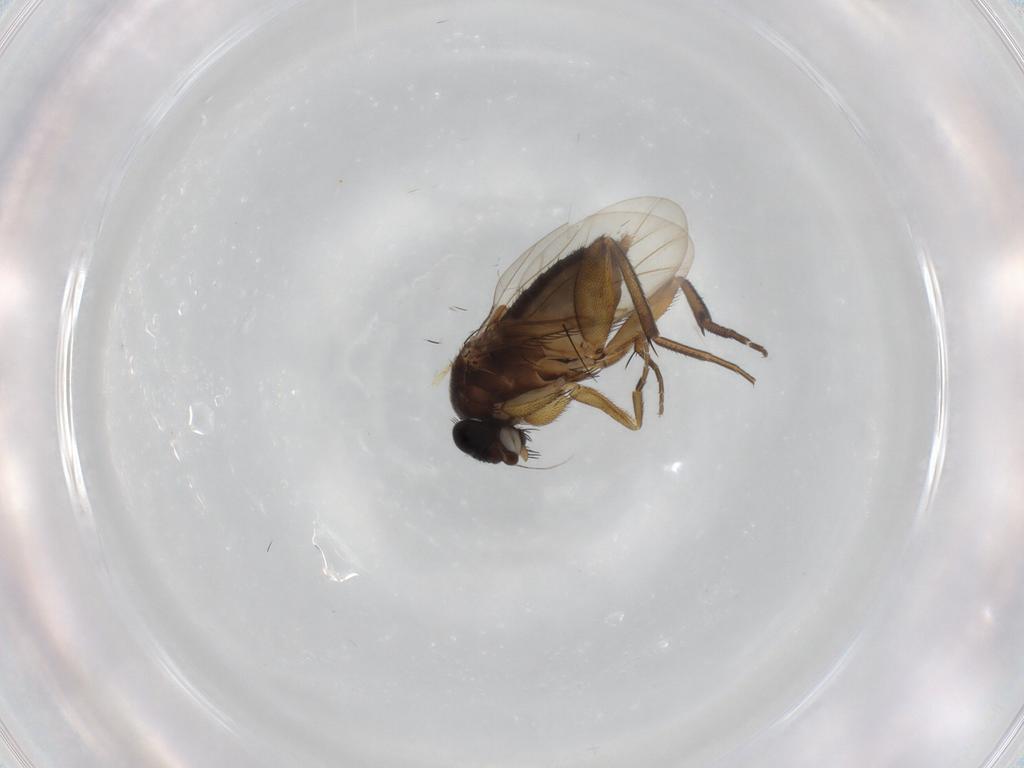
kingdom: Animalia
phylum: Arthropoda
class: Insecta
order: Diptera
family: Phoridae
